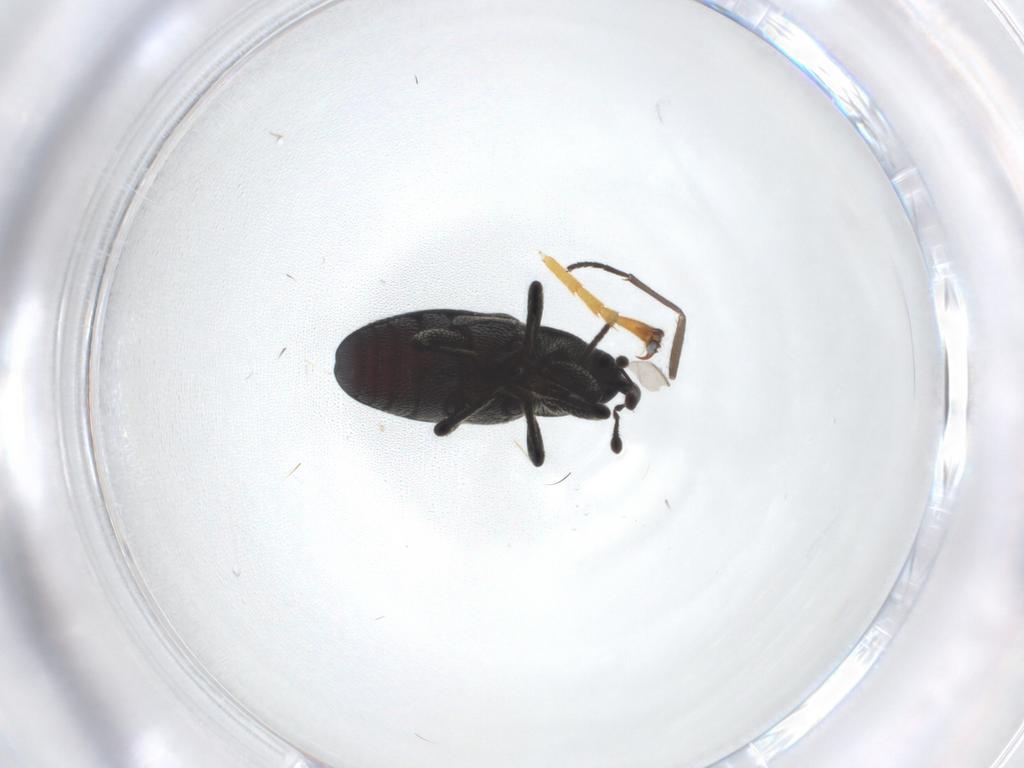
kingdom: Animalia
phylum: Arthropoda
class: Insecta
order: Coleoptera
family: Curculionidae
